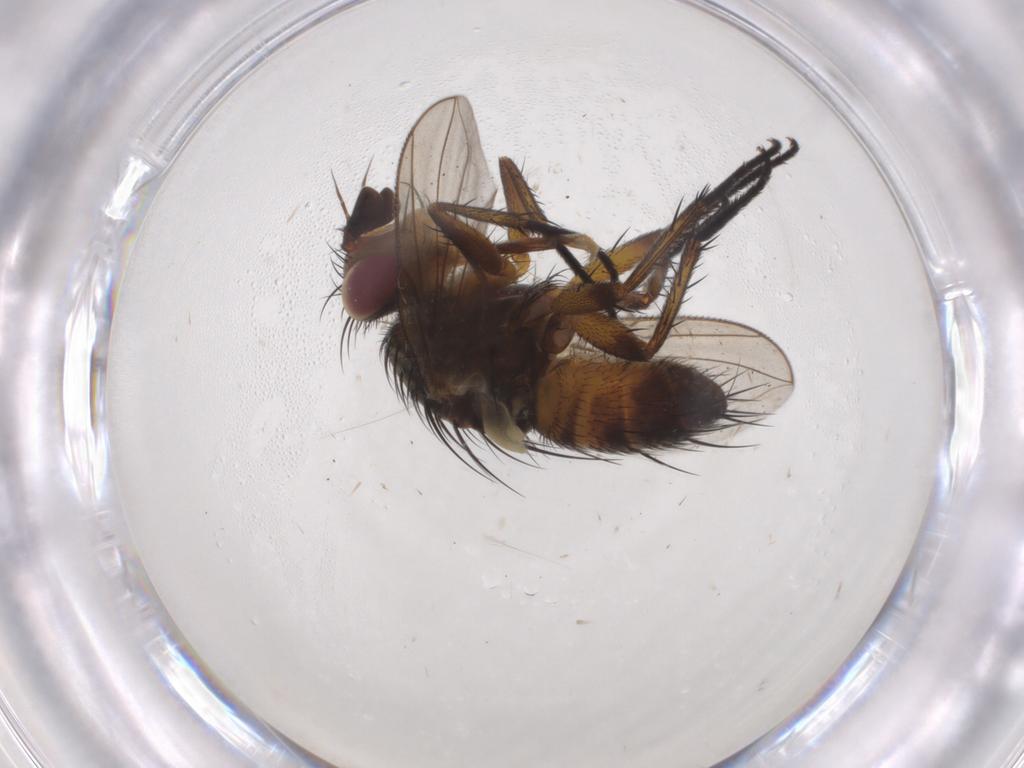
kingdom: Animalia
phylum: Arthropoda
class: Insecta
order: Diptera
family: Tachinidae
